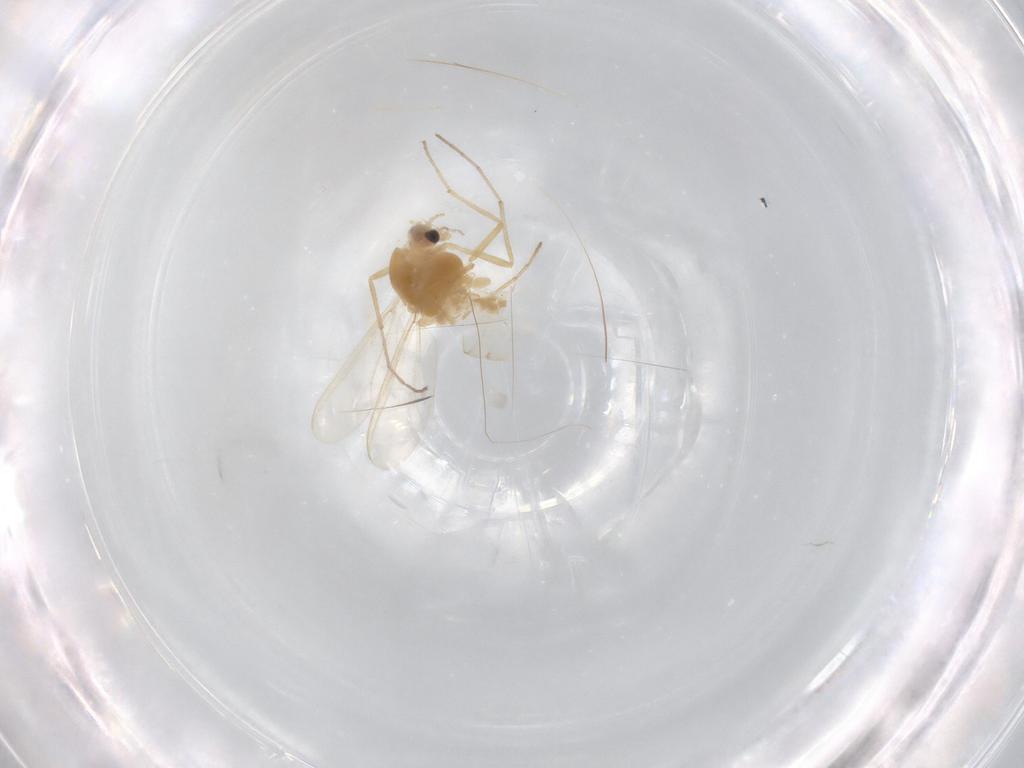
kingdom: Animalia
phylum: Arthropoda
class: Insecta
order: Diptera
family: Chironomidae
